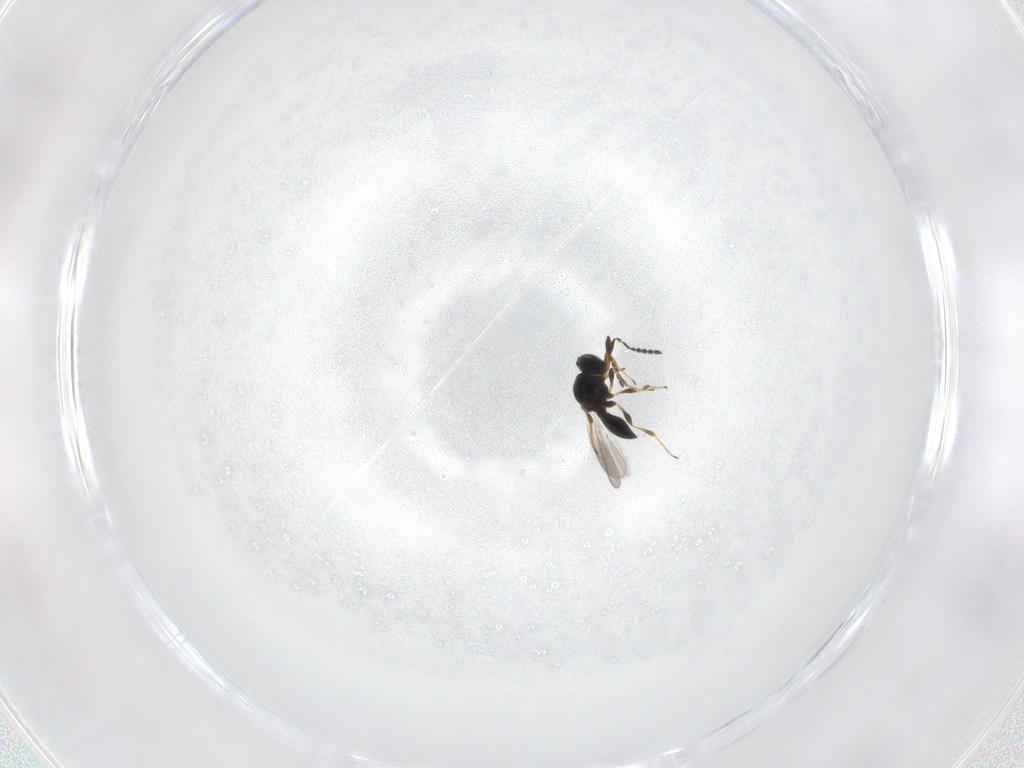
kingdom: Animalia
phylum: Arthropoda
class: Insecta
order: Hymenoptera
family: Platygastridae
